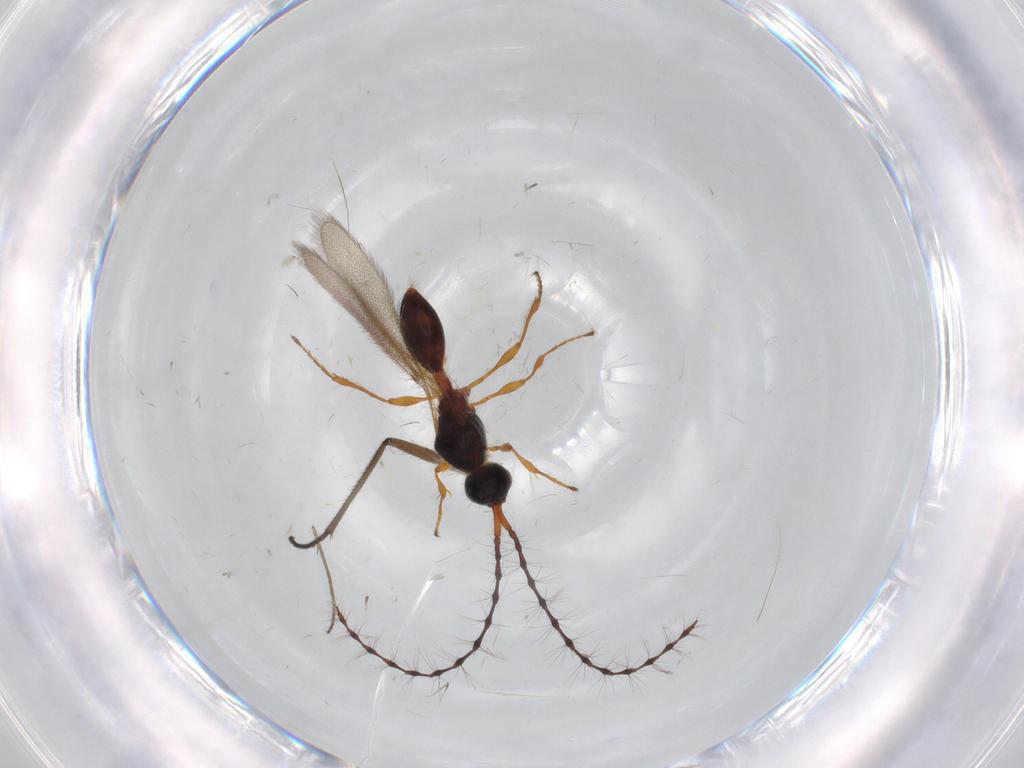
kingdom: Animalia
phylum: Arthropoda
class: Insecta
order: Hymenoptera
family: Diapriidae
